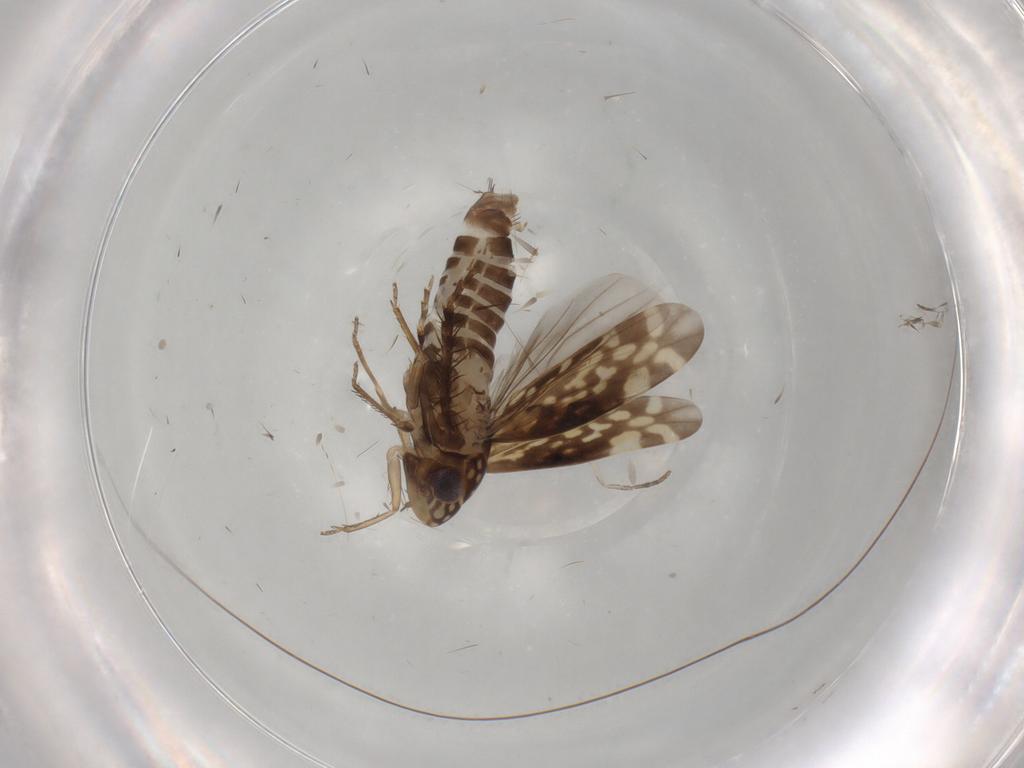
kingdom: Animalia
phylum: Arthropoda
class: Insecta
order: Hemiptera
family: Cicadellidae
